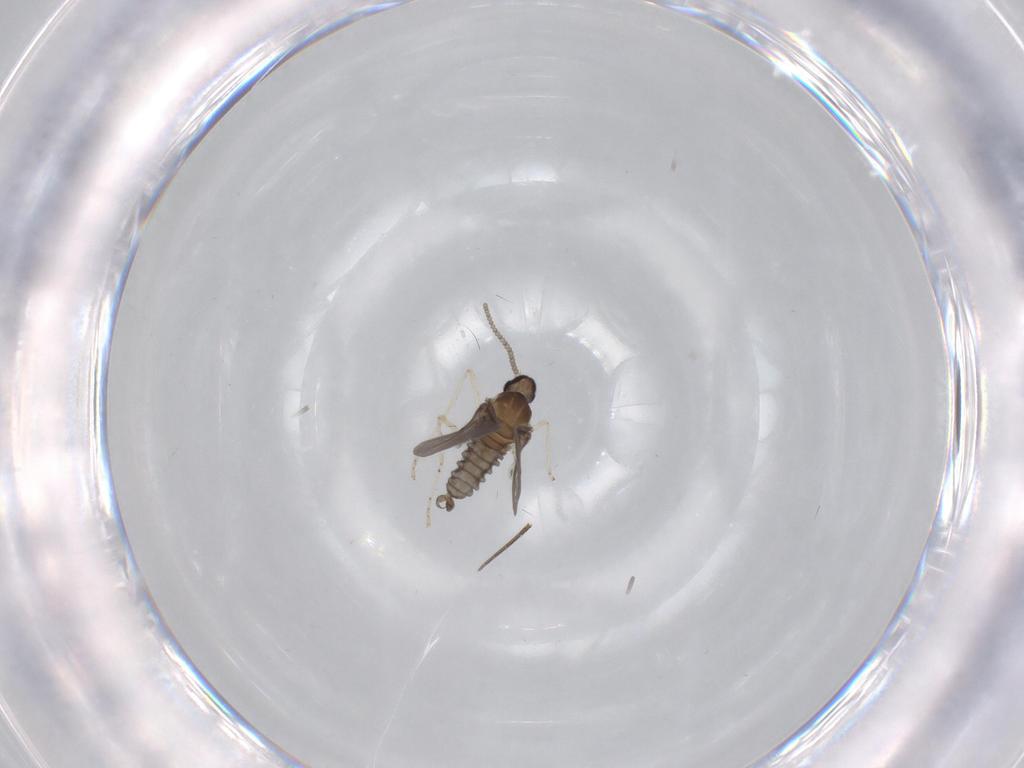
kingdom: Animalia
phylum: Arthropoda
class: Insecta
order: Diptera
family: Cecidomyiidae
